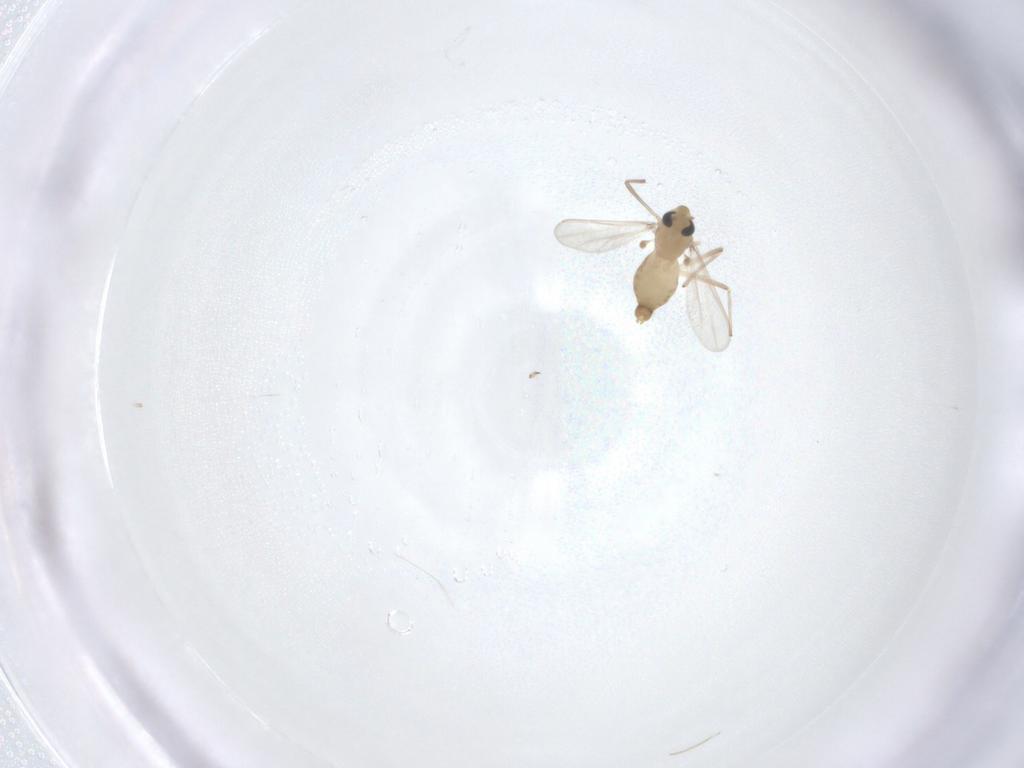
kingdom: Animalia
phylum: Arthropoda
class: Insecta
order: Diptera
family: Chironomidae
